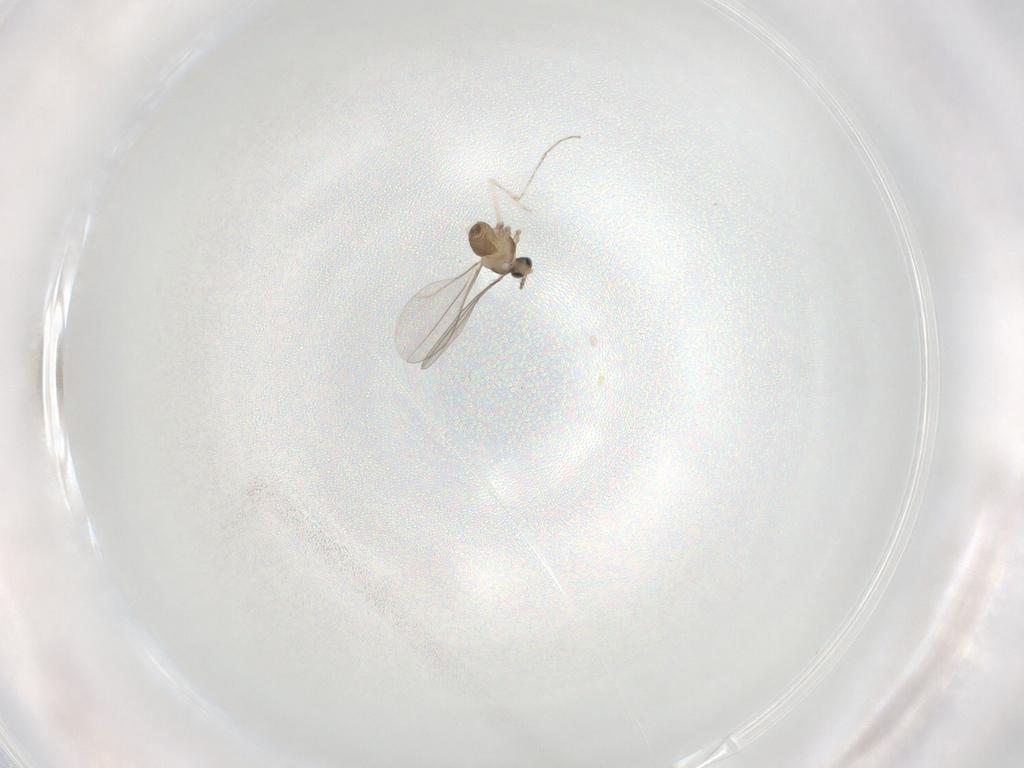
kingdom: Animalia
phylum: Arthropoda
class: Insecta
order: Diptera
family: Cecidomyiidae
